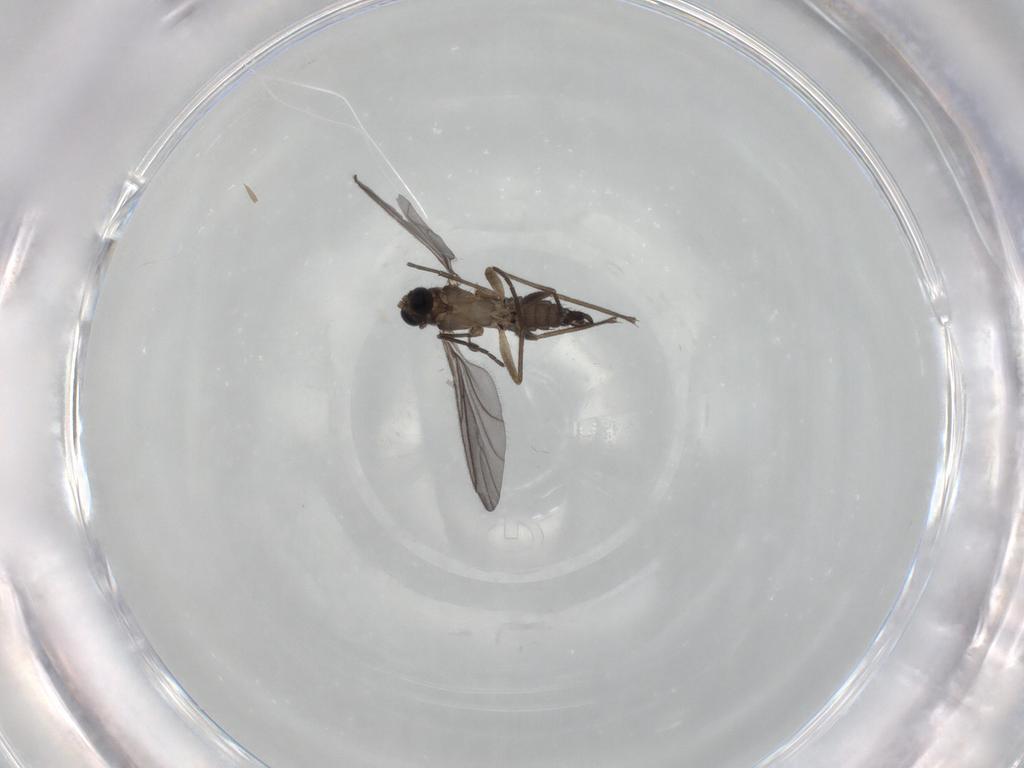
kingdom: Animalia
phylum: Arthropoda
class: Insecta
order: Diptera
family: Sciaridae
